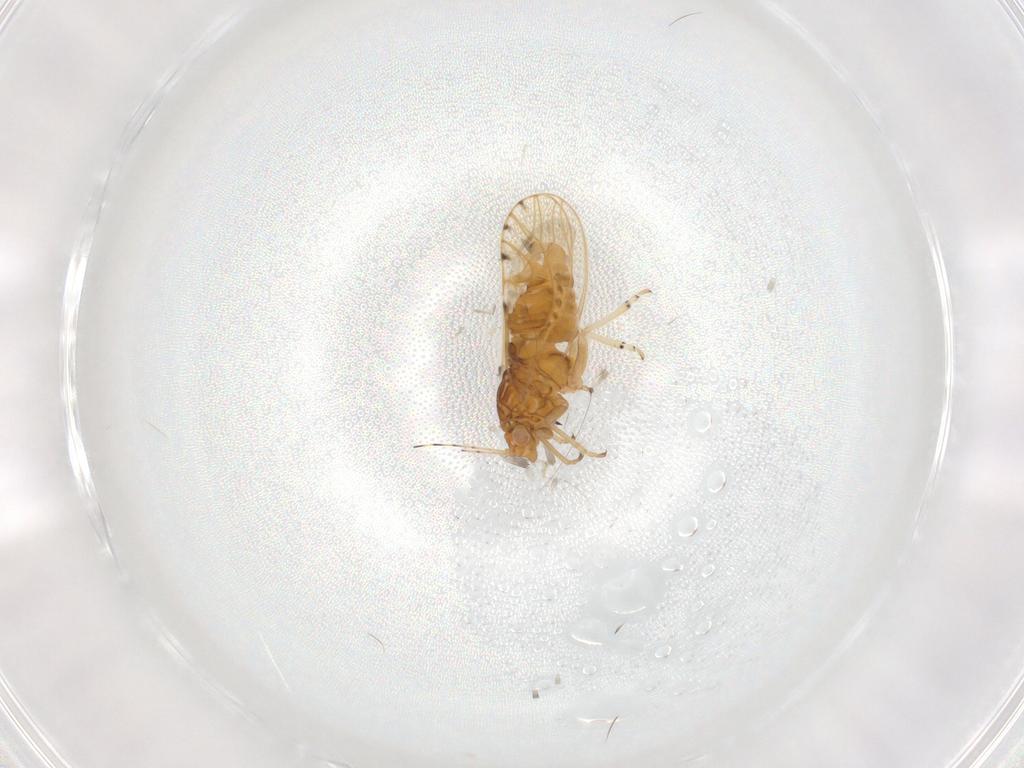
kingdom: Animalia
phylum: Arthropoda
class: Insecta
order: Hemiptera
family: Psylloidea_incertae_sedis
